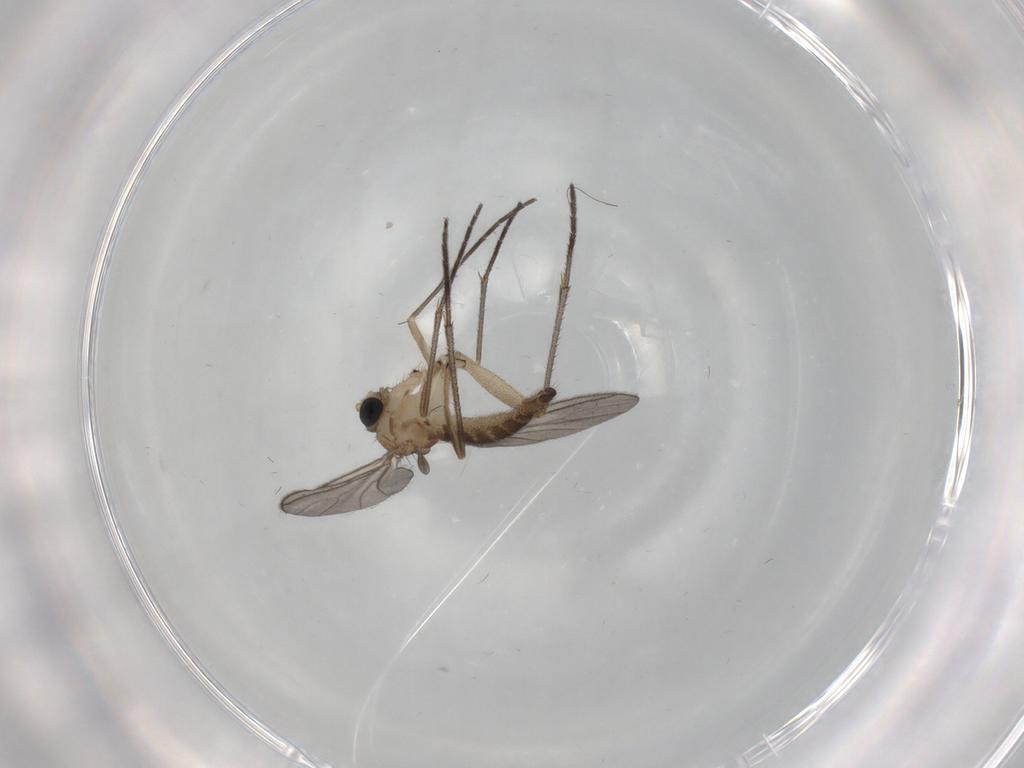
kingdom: Animalia
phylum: Arthropoda
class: Insecta
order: Diptera
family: Sciaridae
